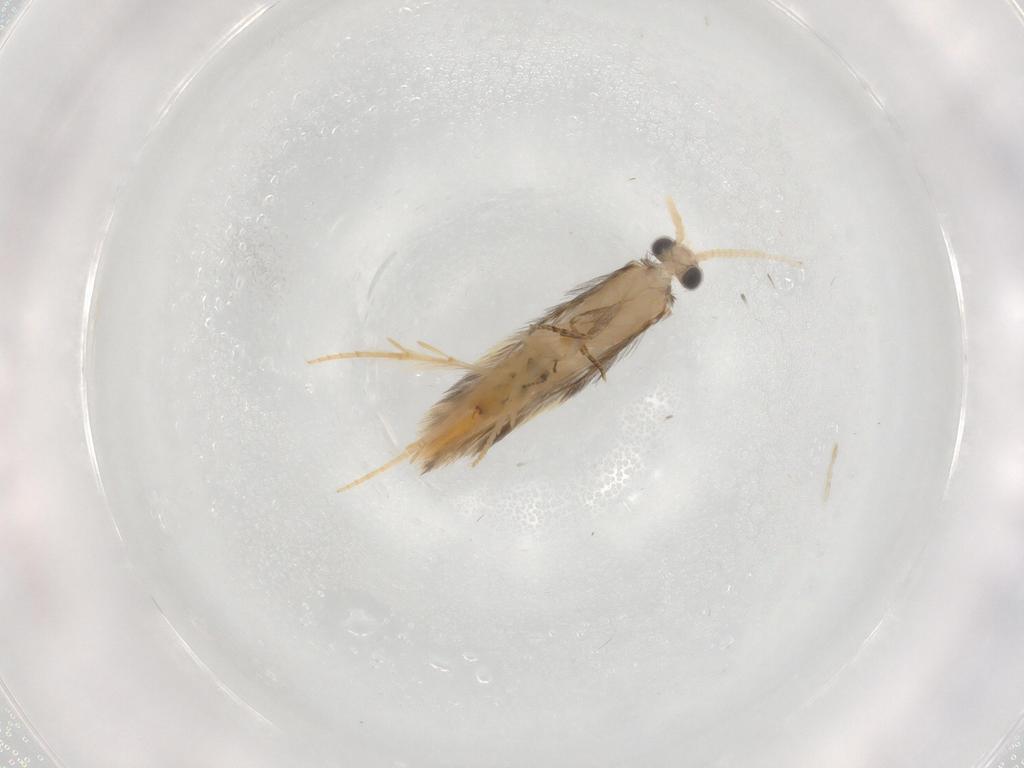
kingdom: Animalia
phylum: Arthropoda
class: Insecta
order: Trichoptera
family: Hydroptilidae
